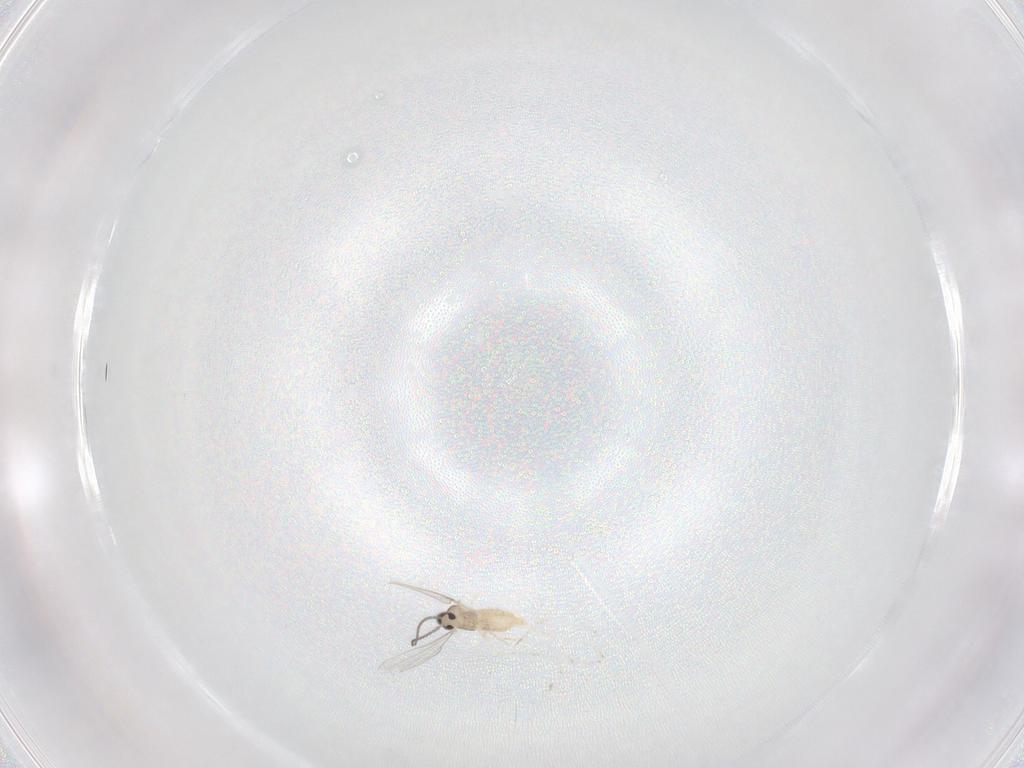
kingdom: Animalia
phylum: Arthropoda
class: Insecta
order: Diptera
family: Cecidomyiidae
